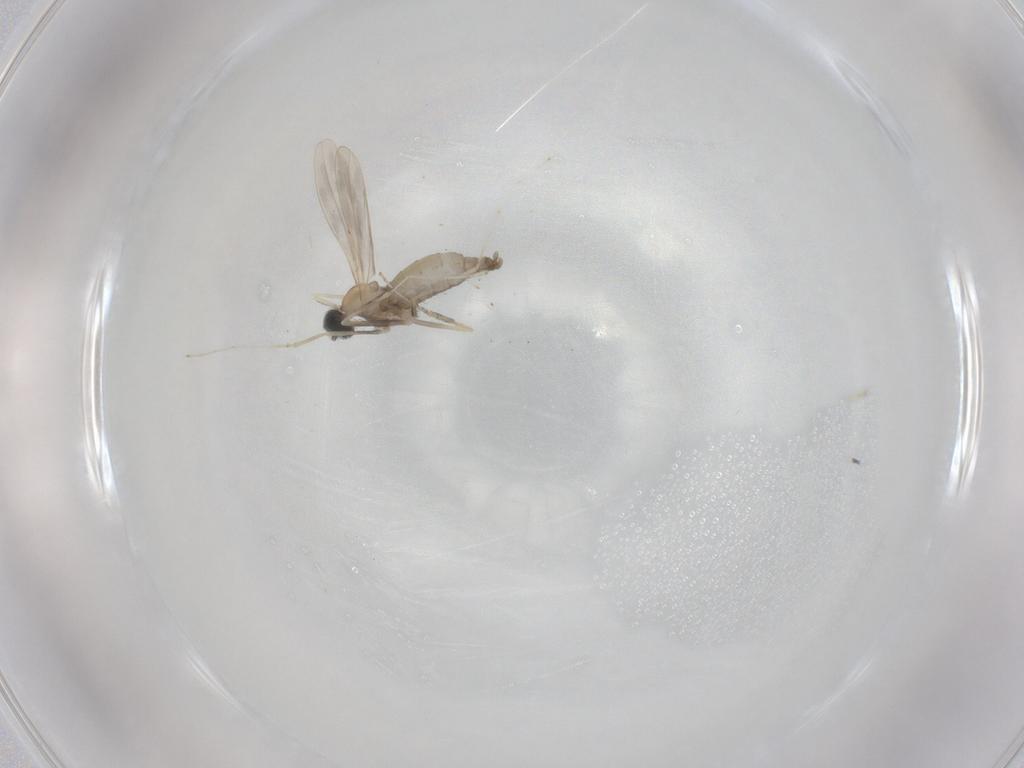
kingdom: Animalia
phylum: Arthropoda
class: Insecta
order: Diptera
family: Cecidomyiidae
